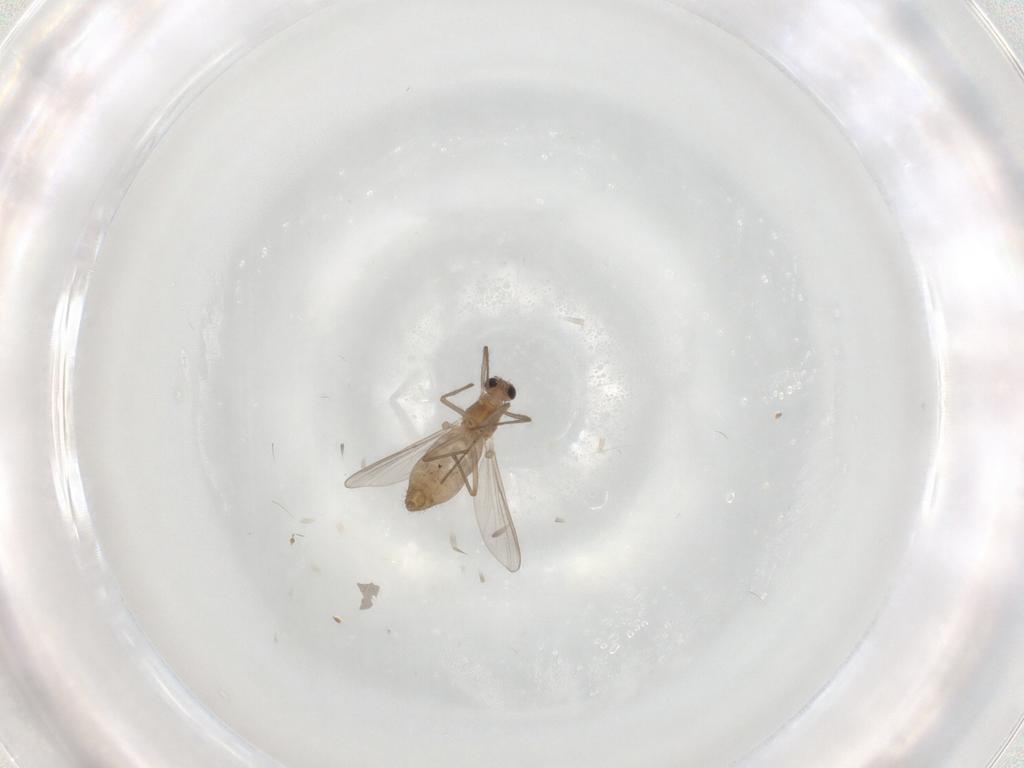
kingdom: Animalia
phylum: Arthropoda
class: Insecta
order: Diptera
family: Chironomidae
